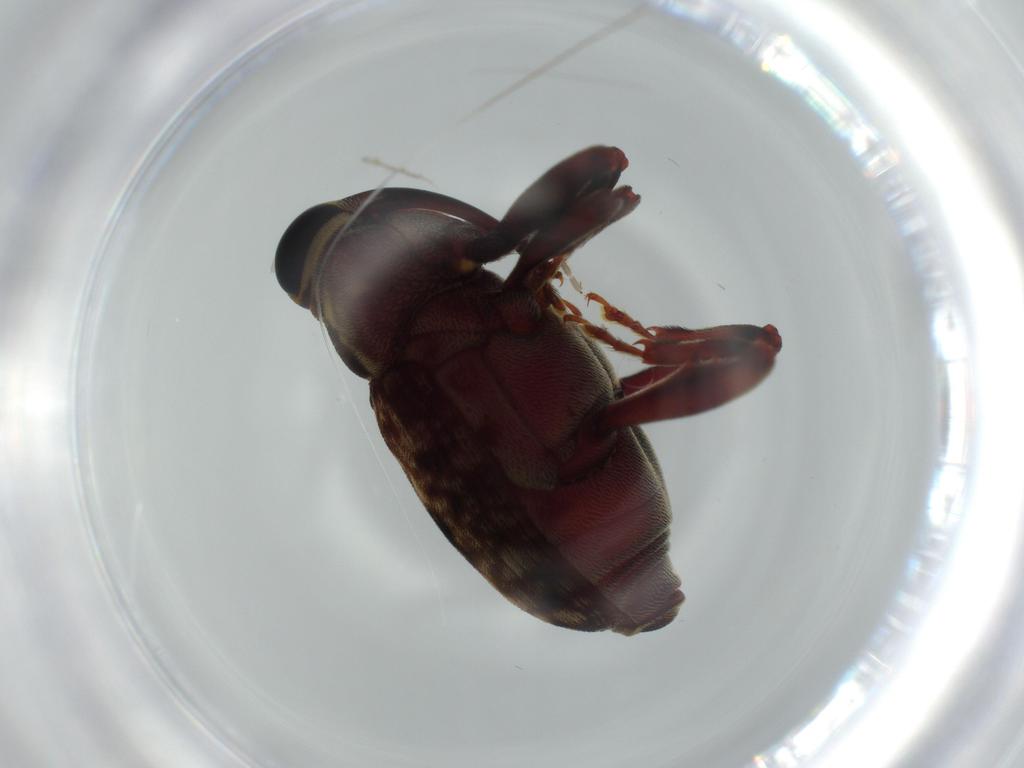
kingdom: Animalia
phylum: Arthropoda
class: Insecta
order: Coleoptera
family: Curculionidae
